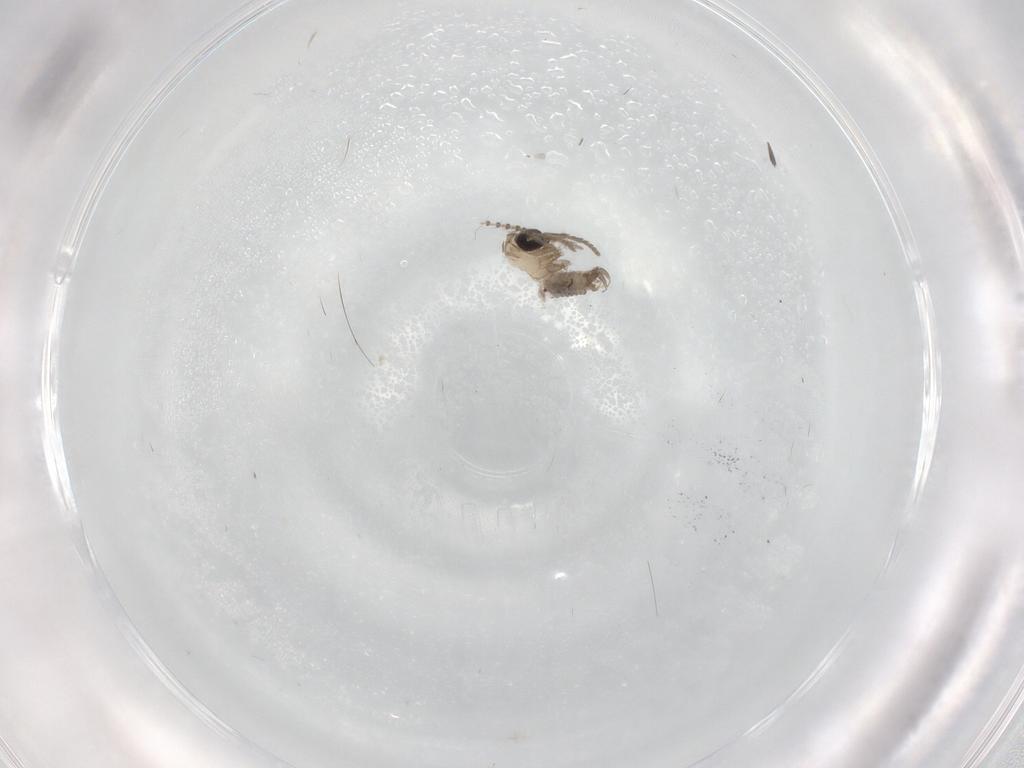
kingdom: Animalia
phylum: Arthropoda
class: Insecta
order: Diptera
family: Psychodidae
